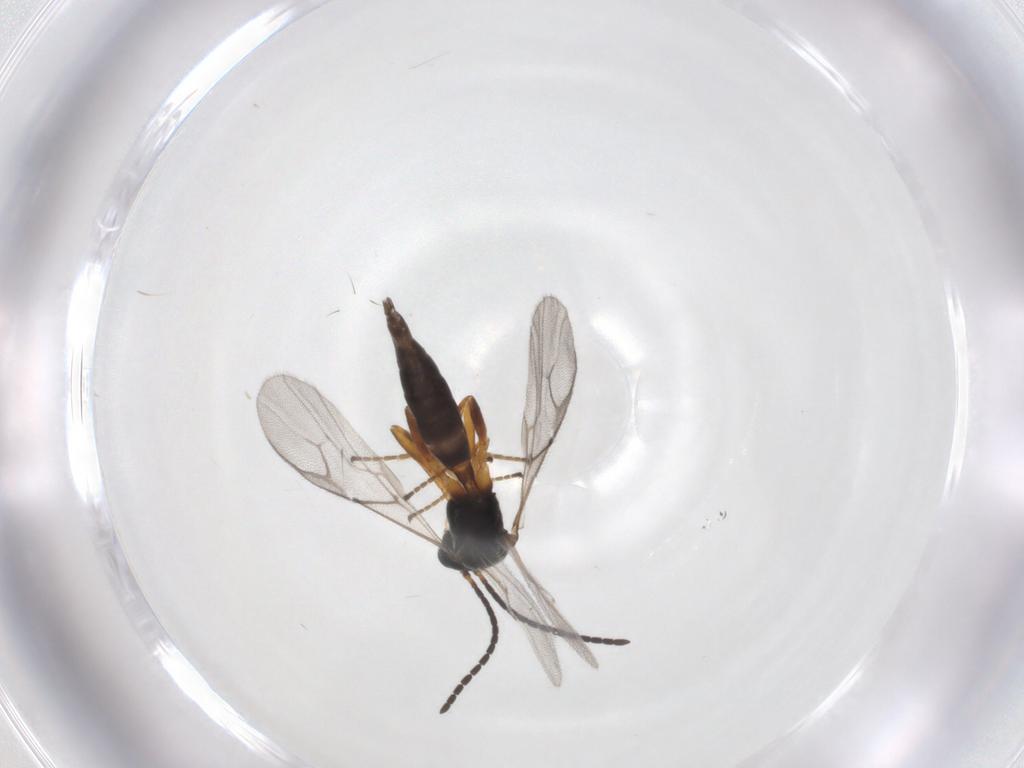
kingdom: Animalia
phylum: Arthropoda
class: Insecta
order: Hymenoptera
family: Braconidae
